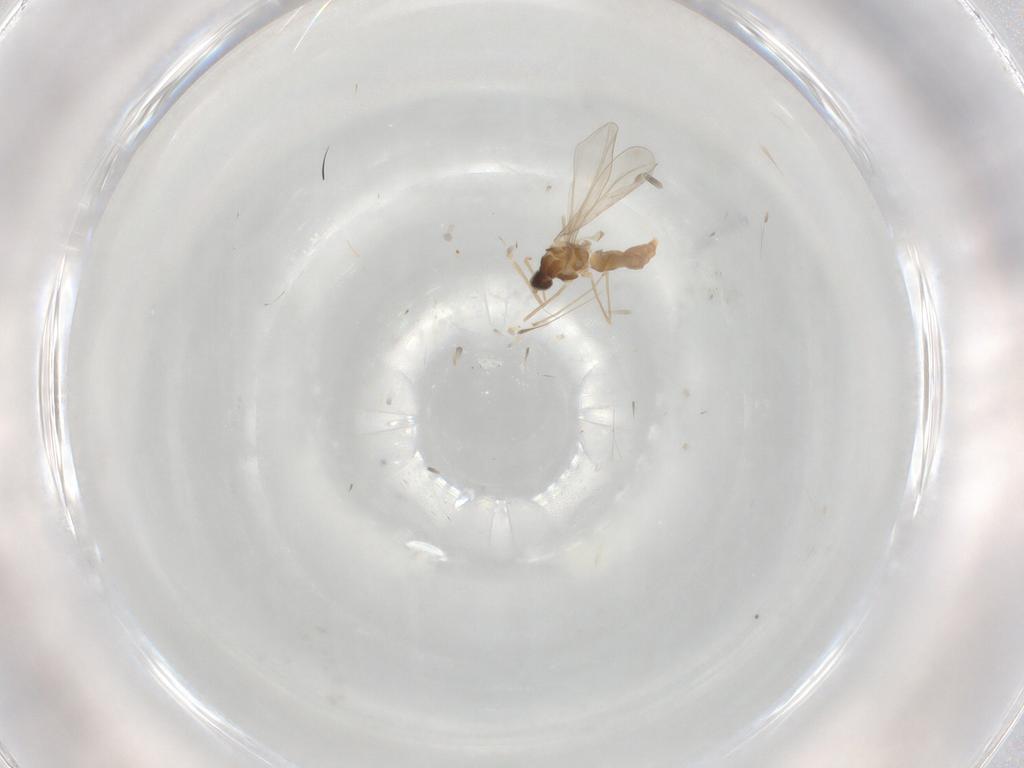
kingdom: Animalia
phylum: Arthropoda
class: Insecta
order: Diptera
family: Cecidomyiidae
